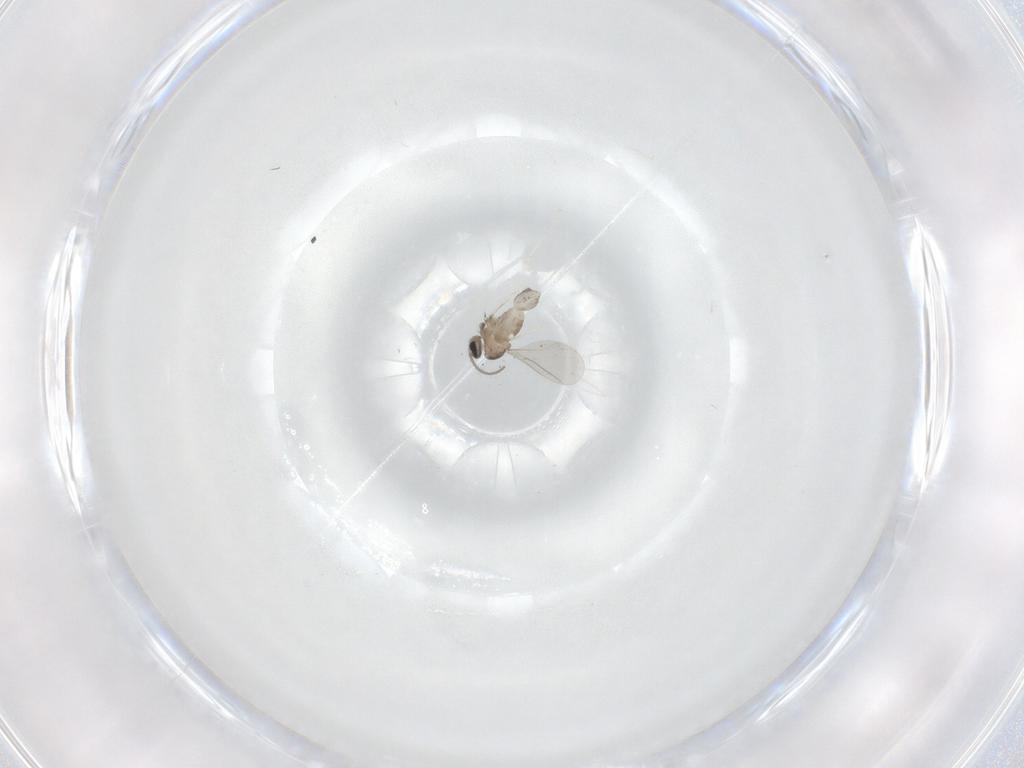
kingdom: Animalia
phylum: Arthropoda
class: Insecta
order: Diptera
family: Cecidomyiidae
